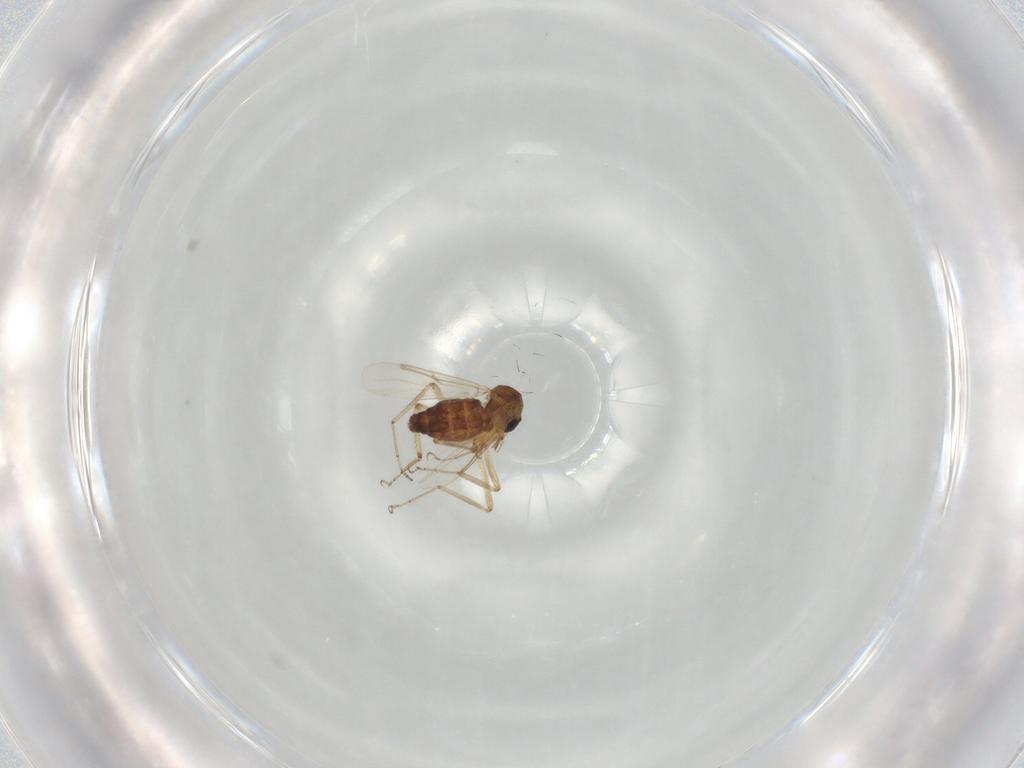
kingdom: Animalia
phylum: Arthropoda
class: Insecta
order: Diptera
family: Ceratopogonidae
